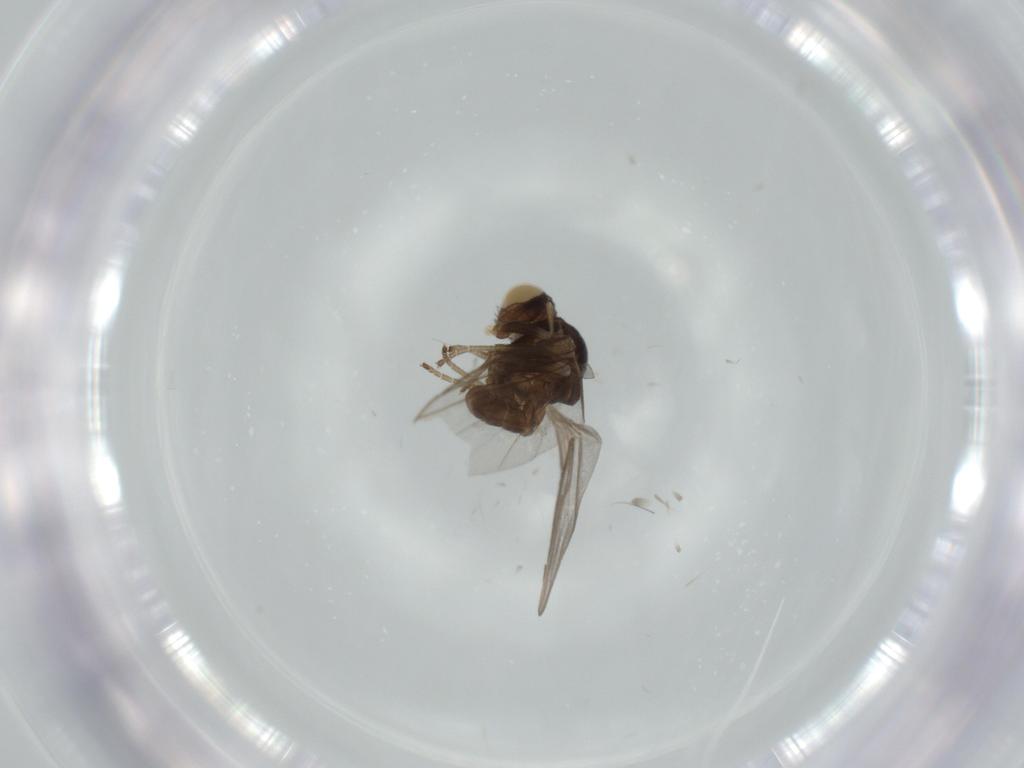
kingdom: Animalia
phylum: Arthropoda
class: Insecta
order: Diptera
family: Agromyzidae
